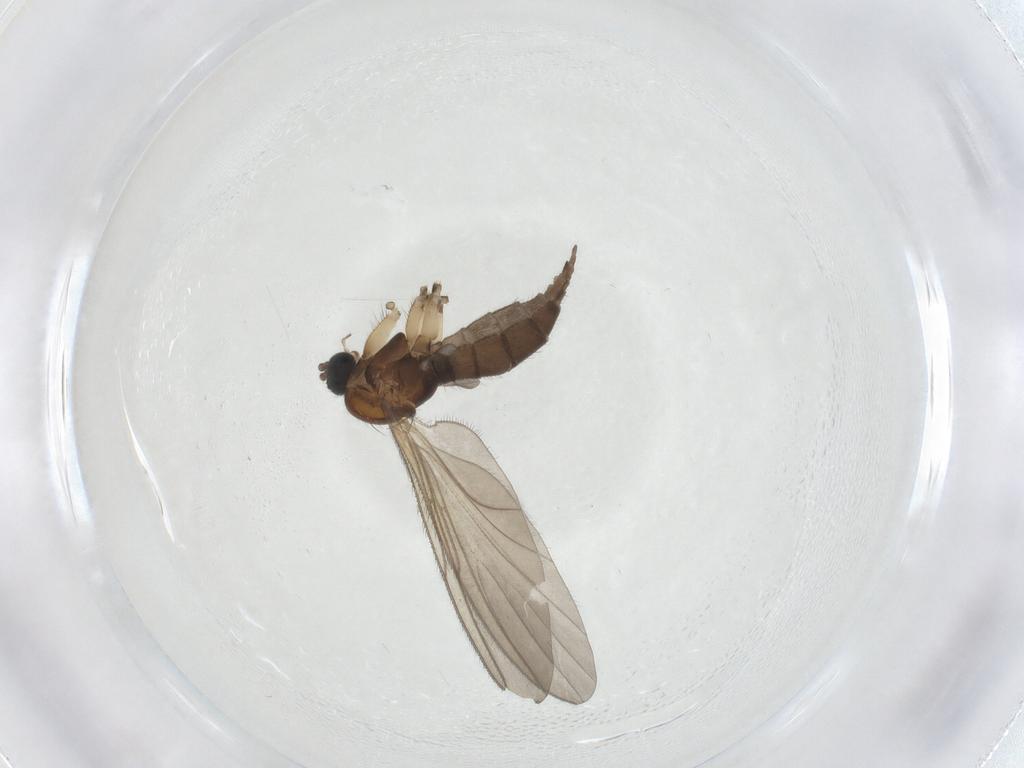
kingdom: Animalia
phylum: Arthropoda
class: Insecta
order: Diptera
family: Sciaridae
